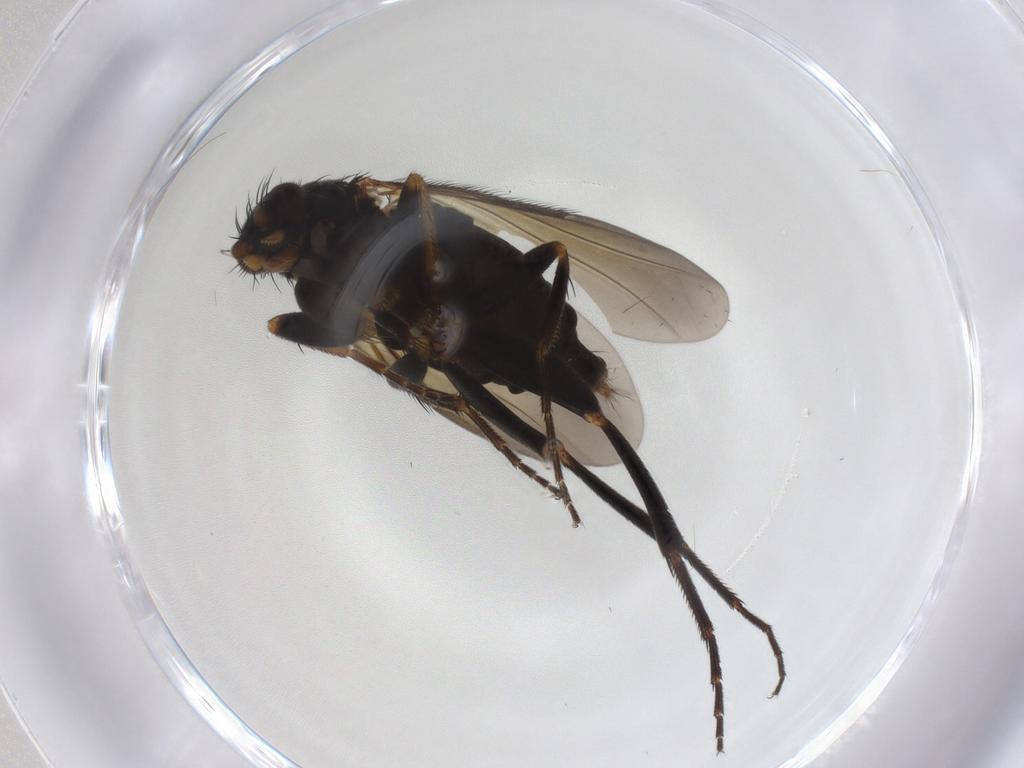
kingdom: Animalia
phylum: Arthropoda
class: Insecta
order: Diptera
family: Phoridae
